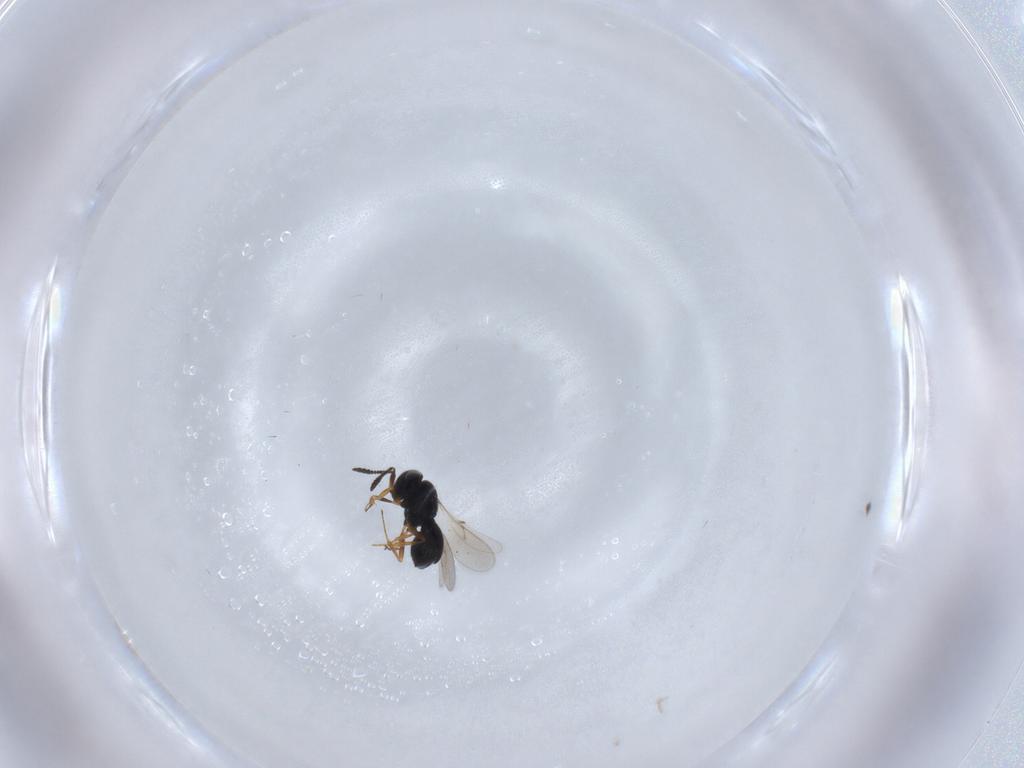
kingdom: Animalia
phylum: Arthropoda
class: Insecta
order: Hymenoptera
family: Scelionidae
